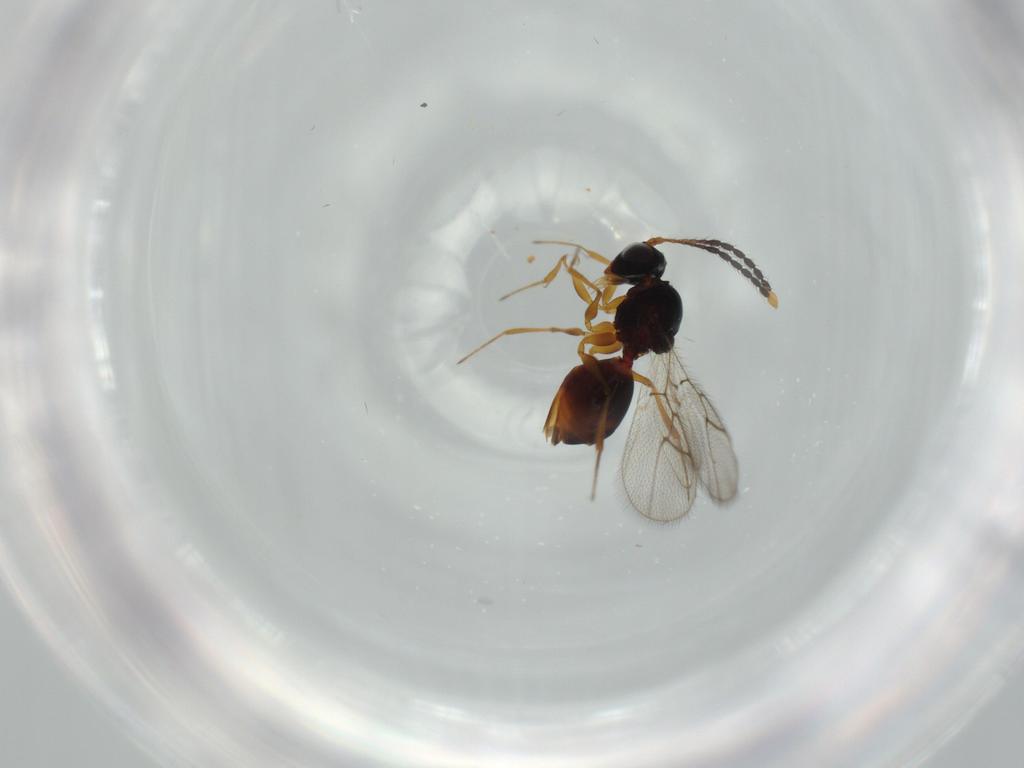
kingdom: Animalia
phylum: Arthropoda
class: Insecta
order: Hymenoptera
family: Figitidae
